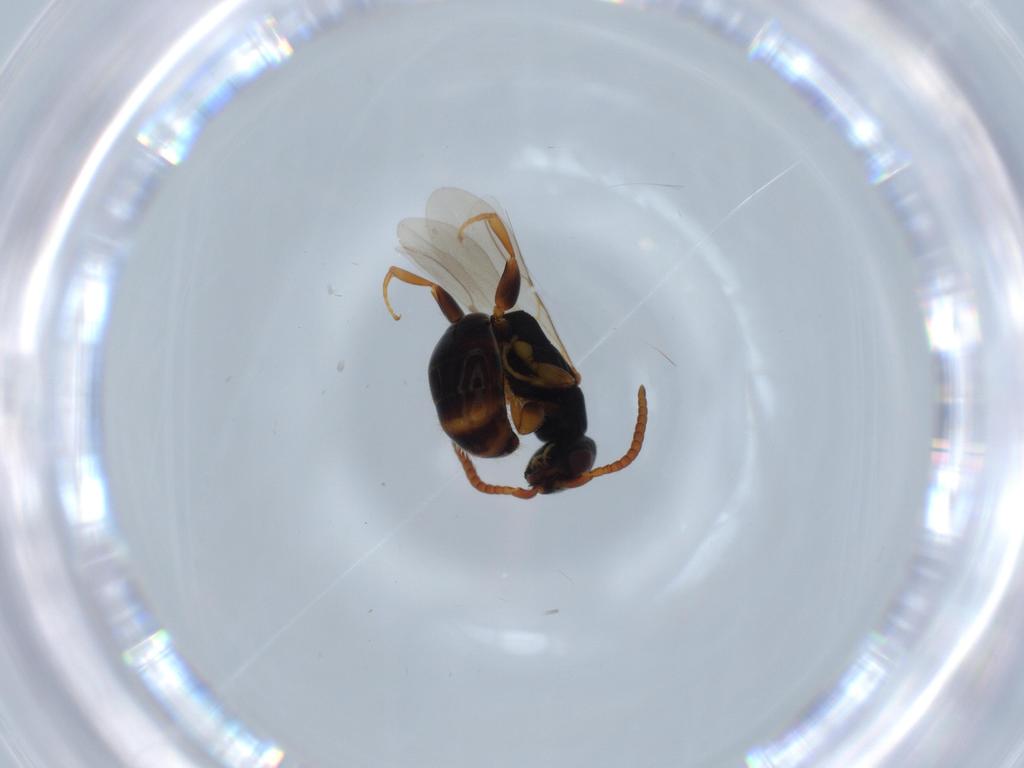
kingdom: Animalia
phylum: Arthropoda
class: Insecta
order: Hymenoptera
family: Bethylidae
